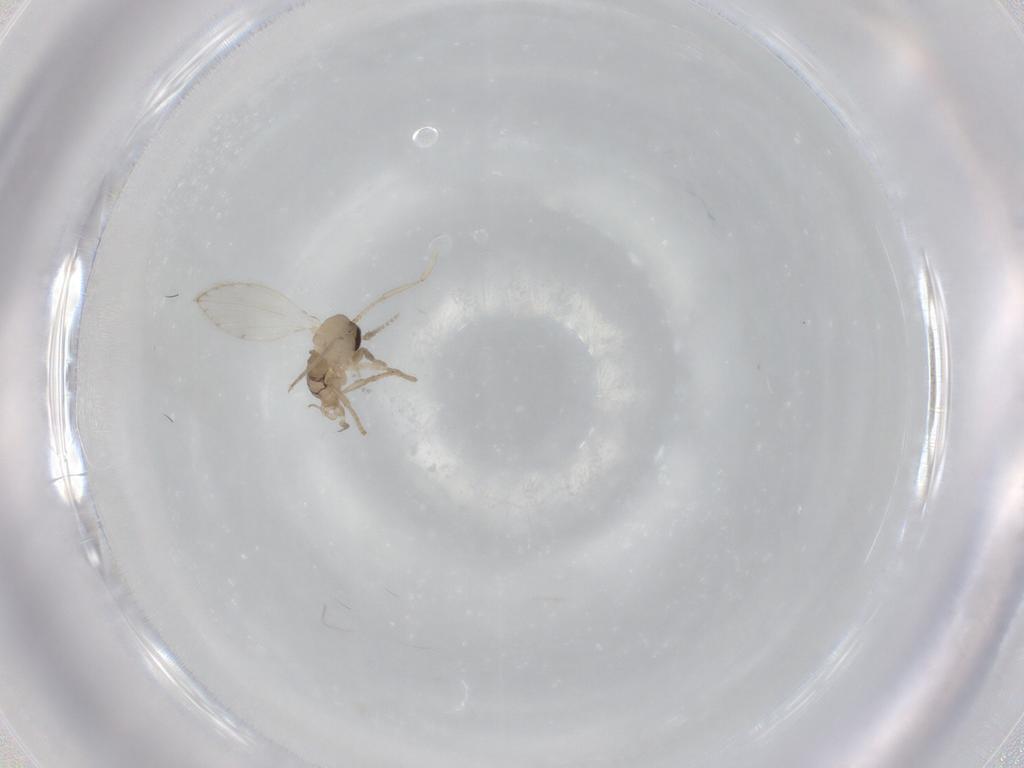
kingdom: Animalia
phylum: Arthropoda
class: Insecta
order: Diptera
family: Psychodidae
